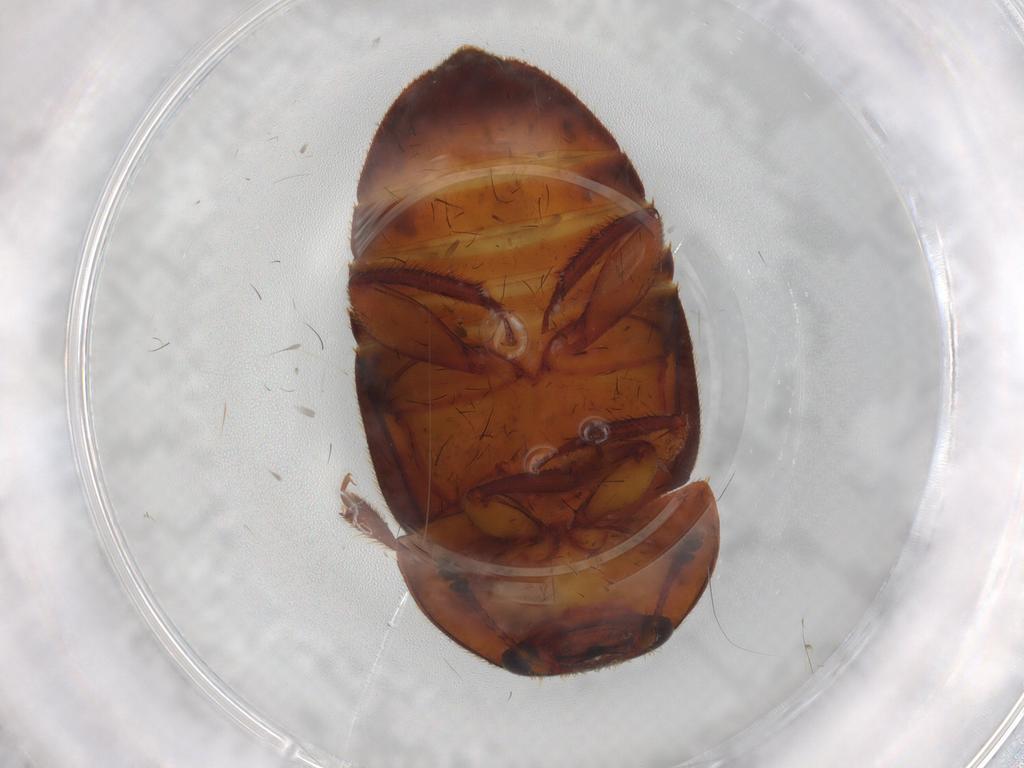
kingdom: Animalia
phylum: Arthropoda
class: Insecta
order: Coleoptera
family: Nitidulidae
